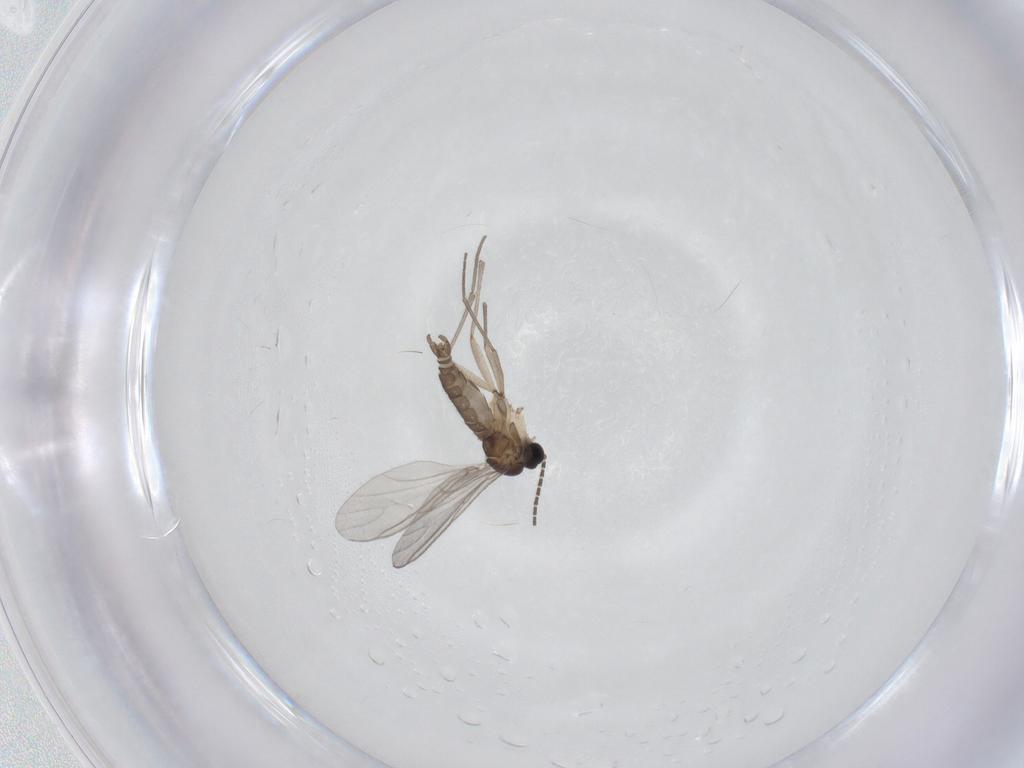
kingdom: Animalia
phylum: Arthropoda
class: Insecta
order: Diptera
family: Sciaridae
